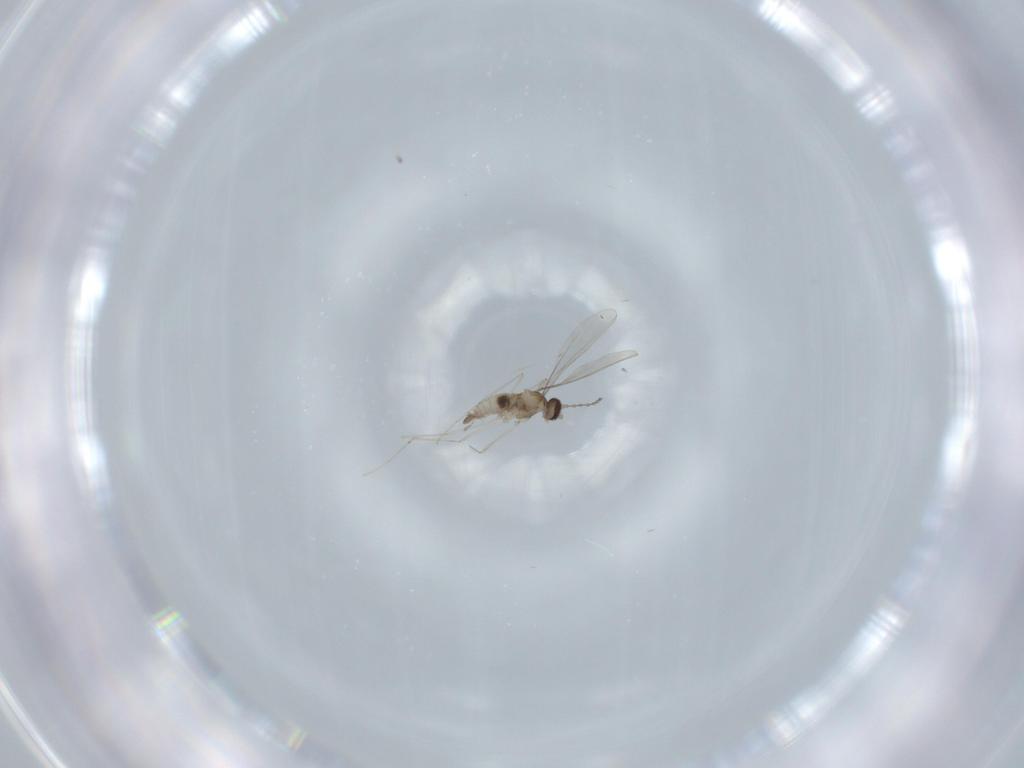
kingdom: Animalia
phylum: Arthropoda
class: Insecta
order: Diptera
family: Cecidomyiidae
